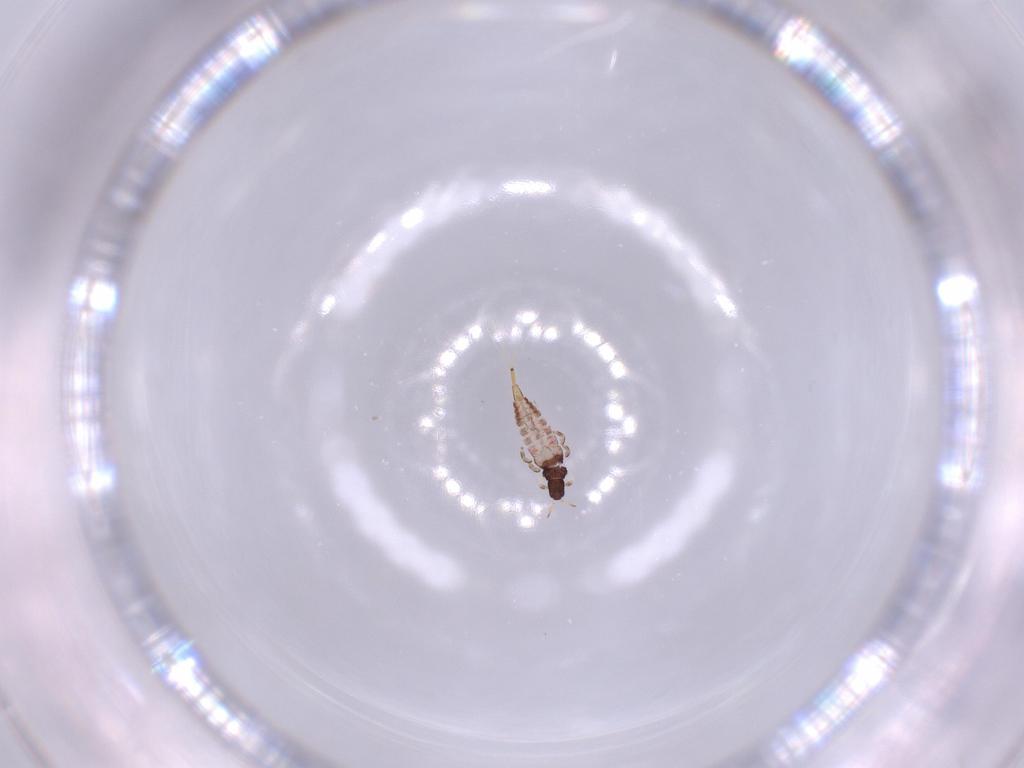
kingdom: Animalia
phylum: Arthropoda
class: Insecta
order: Thysanoptera
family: Phlaeothripidae
